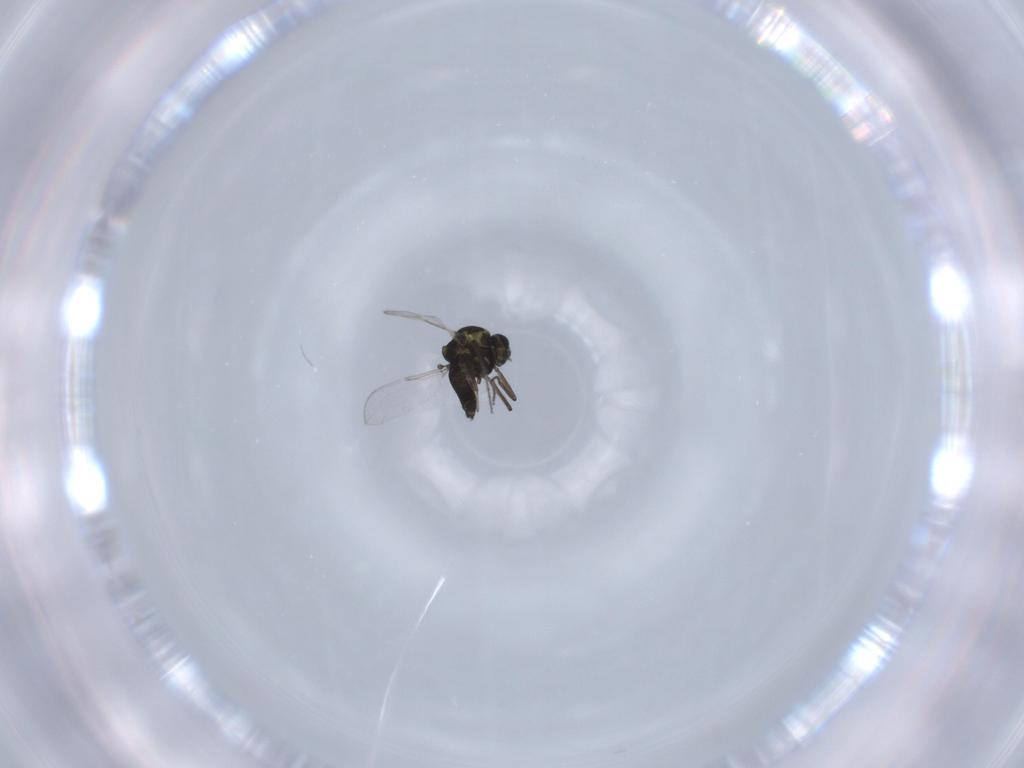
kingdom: Animalia
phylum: Arthropoda
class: Insecta
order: Diptera
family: Ceratopogonidae
